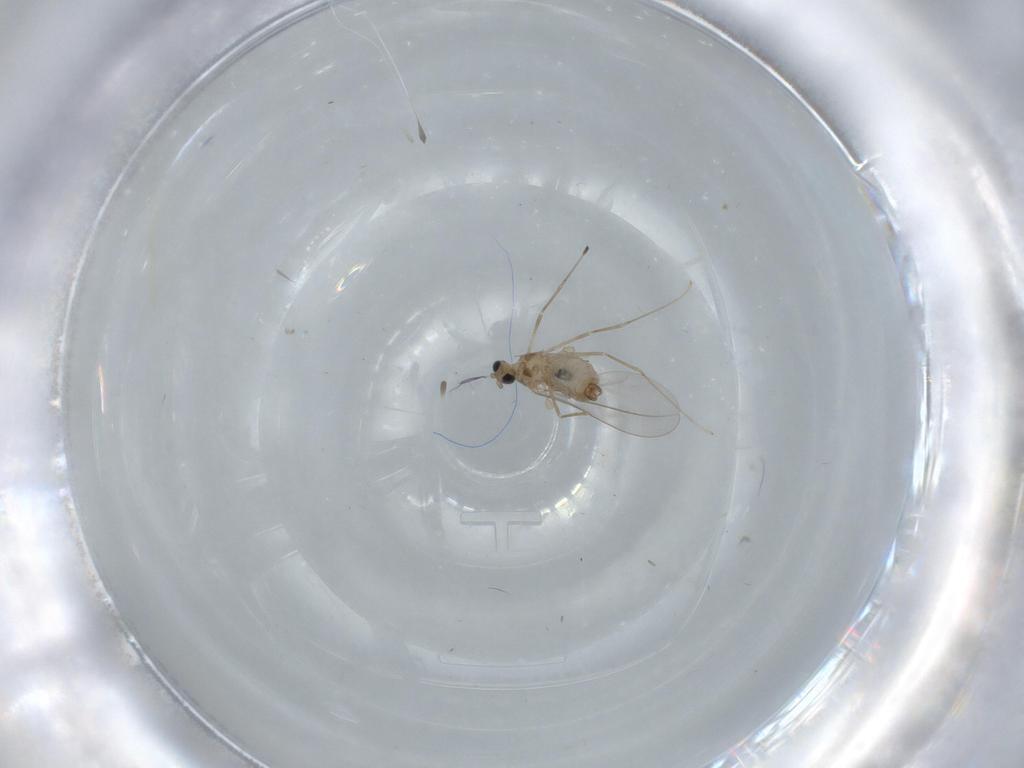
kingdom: Animalia
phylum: Arthropoda
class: Insecta
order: Diptera
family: Cecidomyiidae
